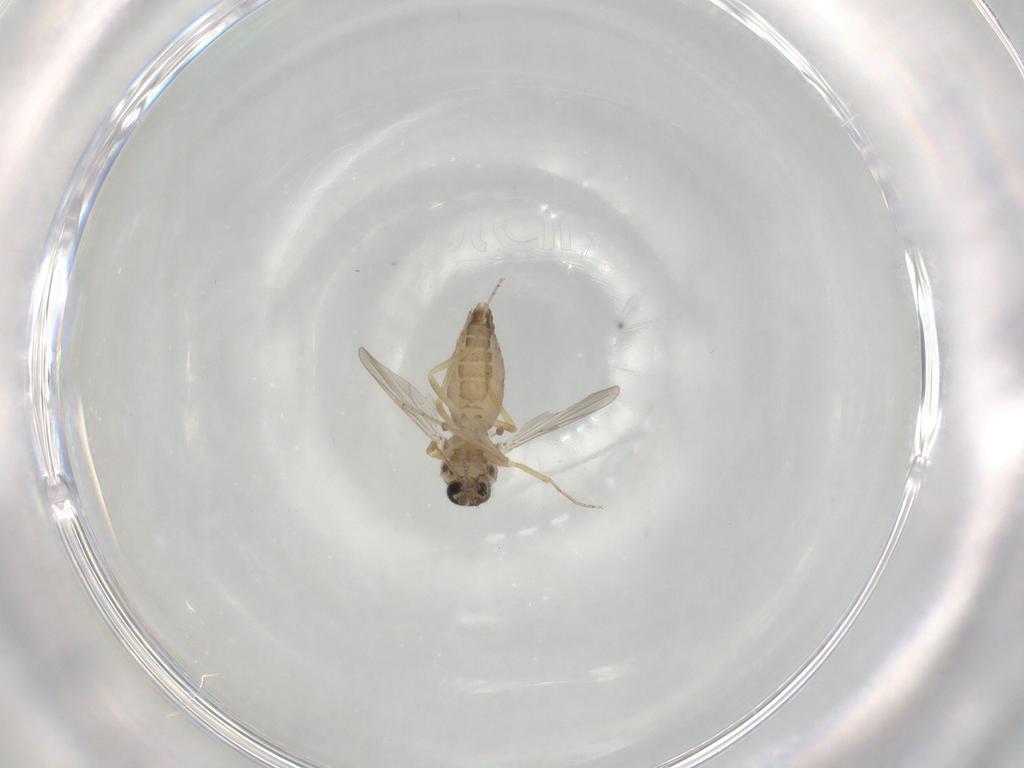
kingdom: Animalia
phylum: Arthropoda
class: Insecta
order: Diptera
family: Ceratopogonidae
